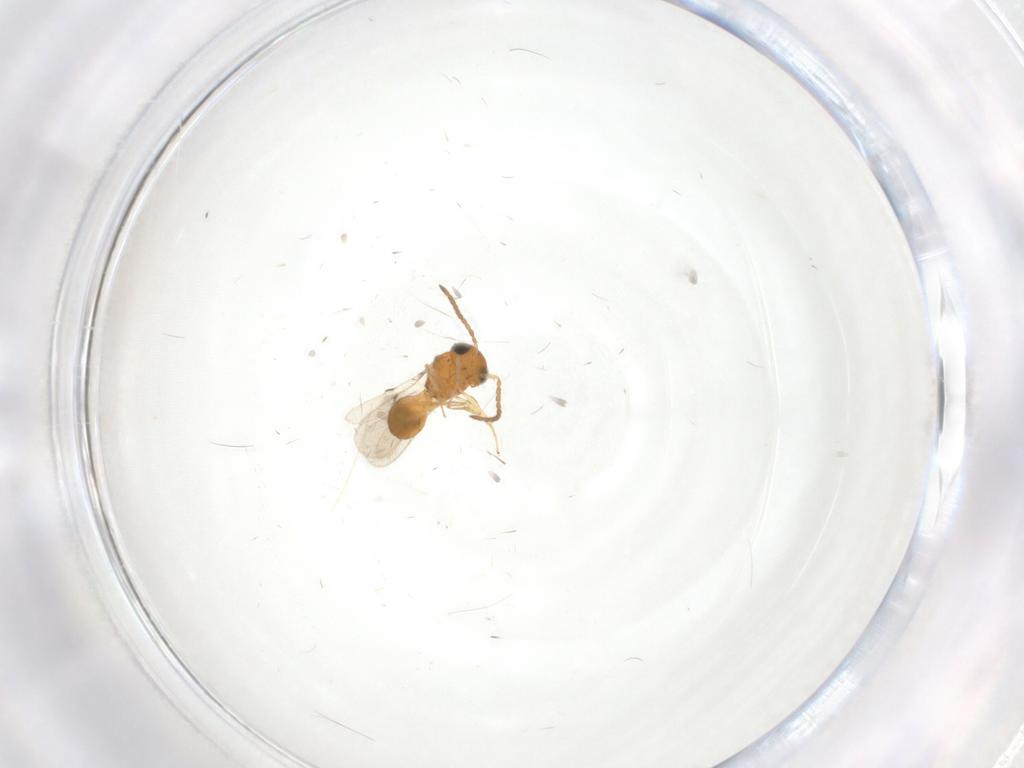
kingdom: Animalia
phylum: Arthropoda
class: Insecta
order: Hymenoptera
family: Scelionidae
